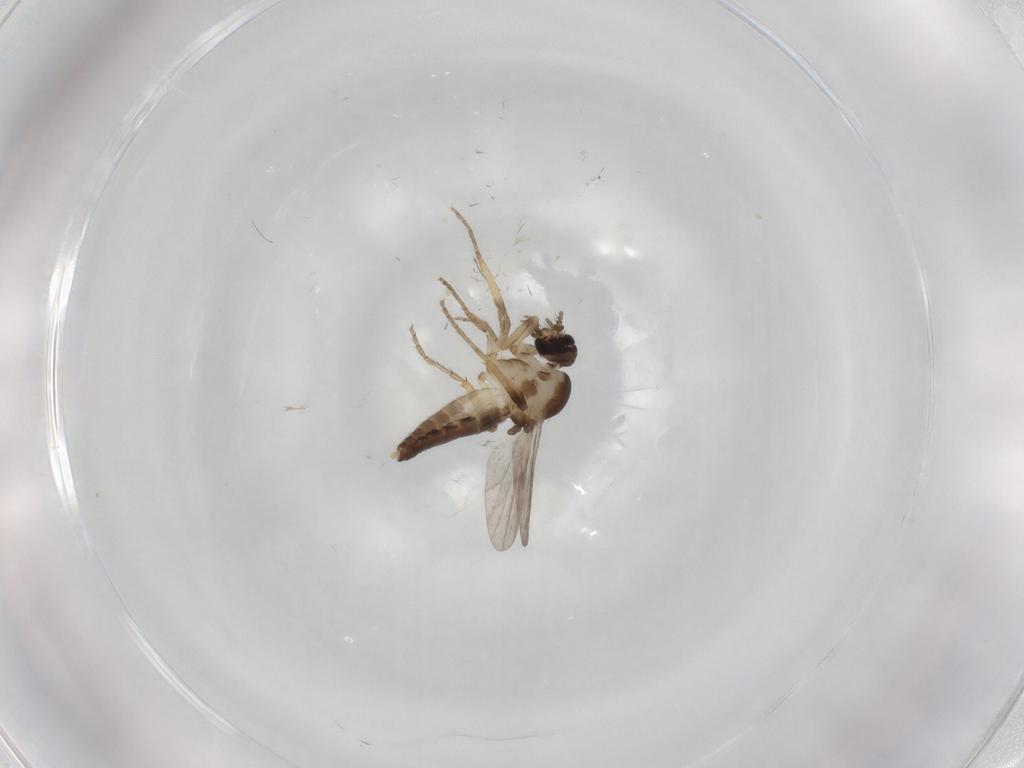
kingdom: Animalia
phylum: Arthropoda
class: Insecta
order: Diptera
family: Ceratopogonidae
